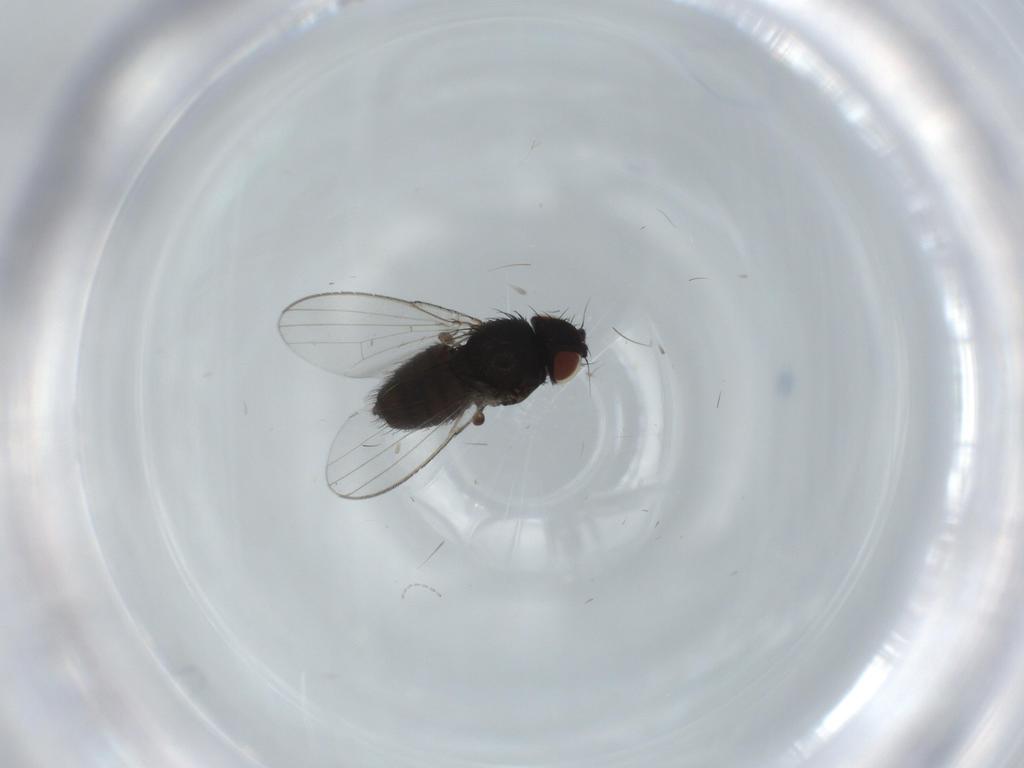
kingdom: Animalia
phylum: Arthropoda
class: Insecta
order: Diptera
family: Milichiidae
